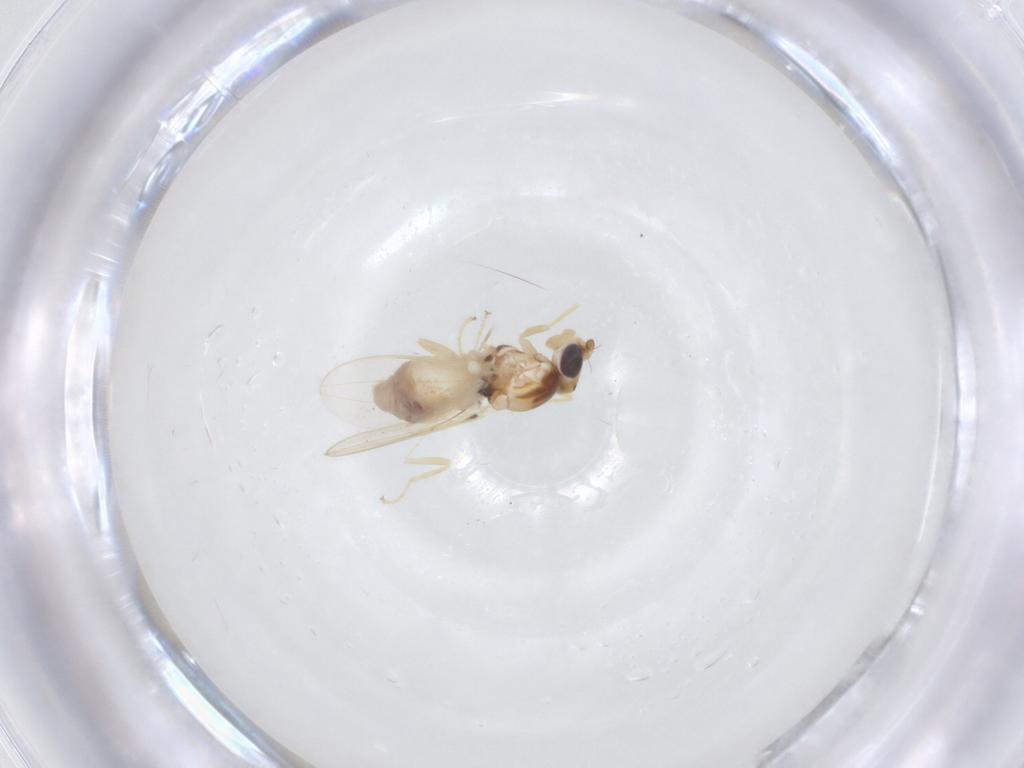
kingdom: Animalia
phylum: Arthropoda
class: Insecta
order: Diptera
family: Chloropidae
